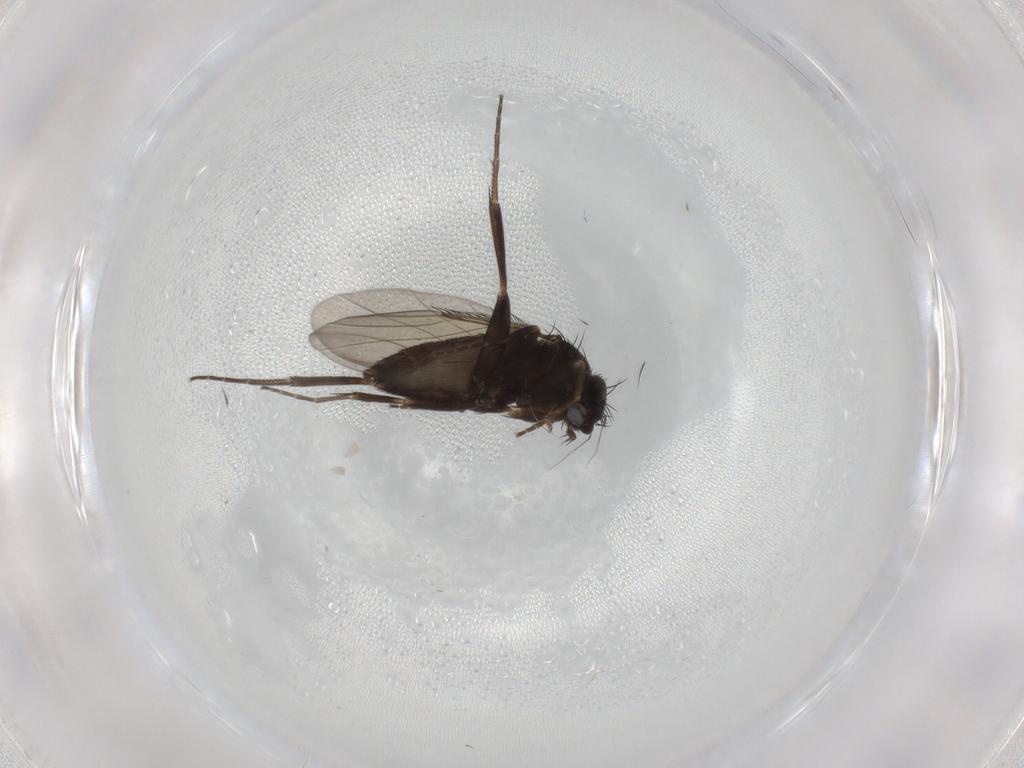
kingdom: Animalia
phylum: Arthropoda
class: Insecta
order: Diptera
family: Phoridae
